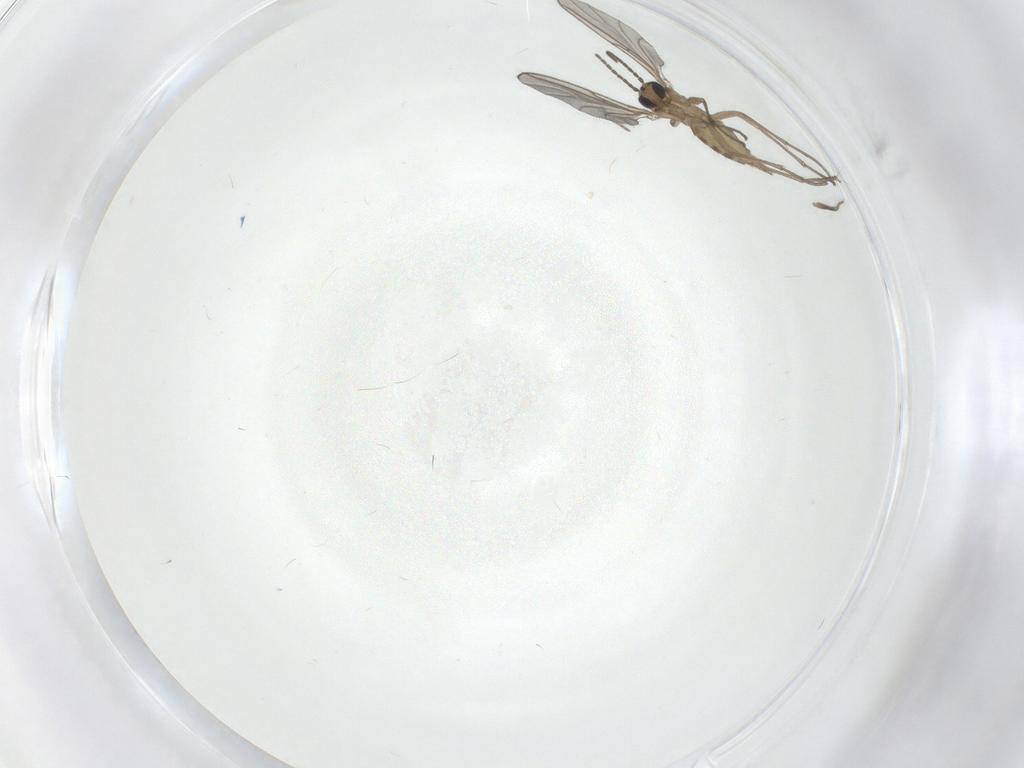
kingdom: Animalia
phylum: Arthropoda
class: Insecta
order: Diptera
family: Sciaridae
